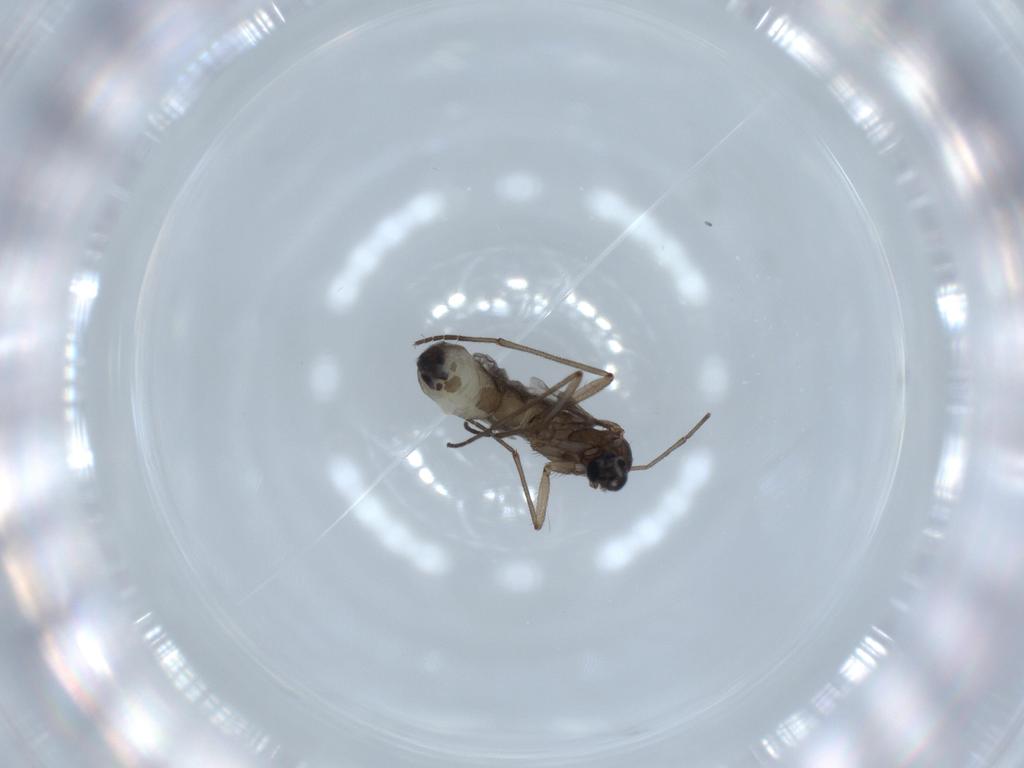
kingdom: Animalia
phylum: Arthropoda
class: Insecta
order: Diptera
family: Sciaridae
